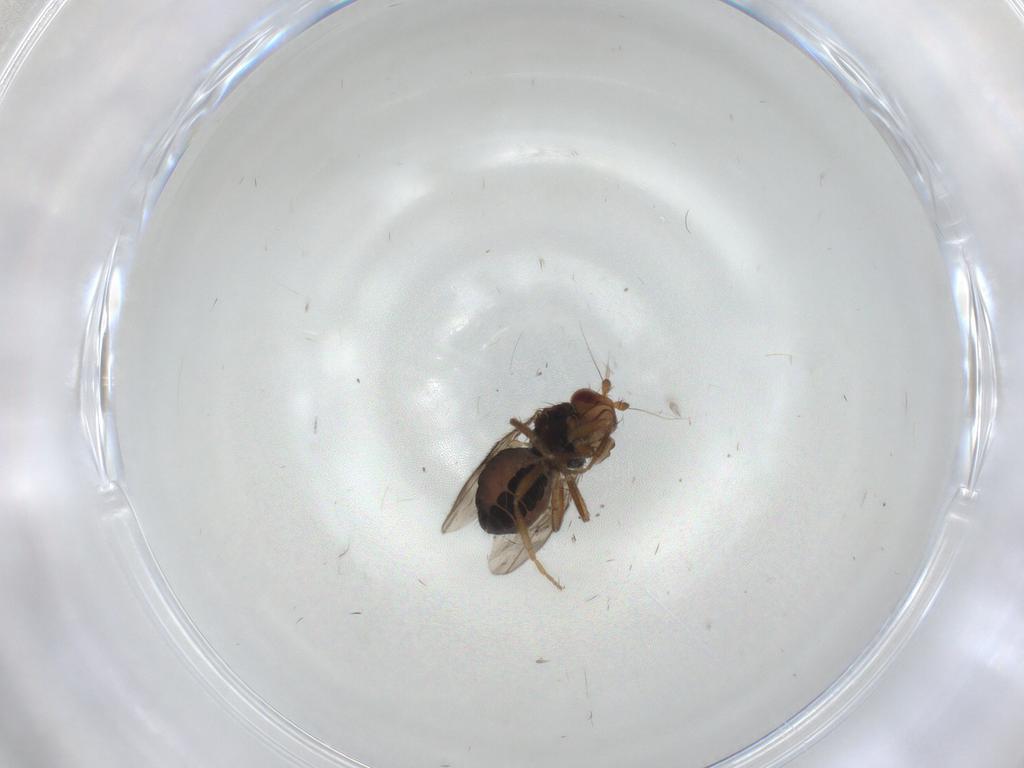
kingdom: Animalia
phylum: Arthropoda
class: Insecta
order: Diptera
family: Sphaeroceridae
